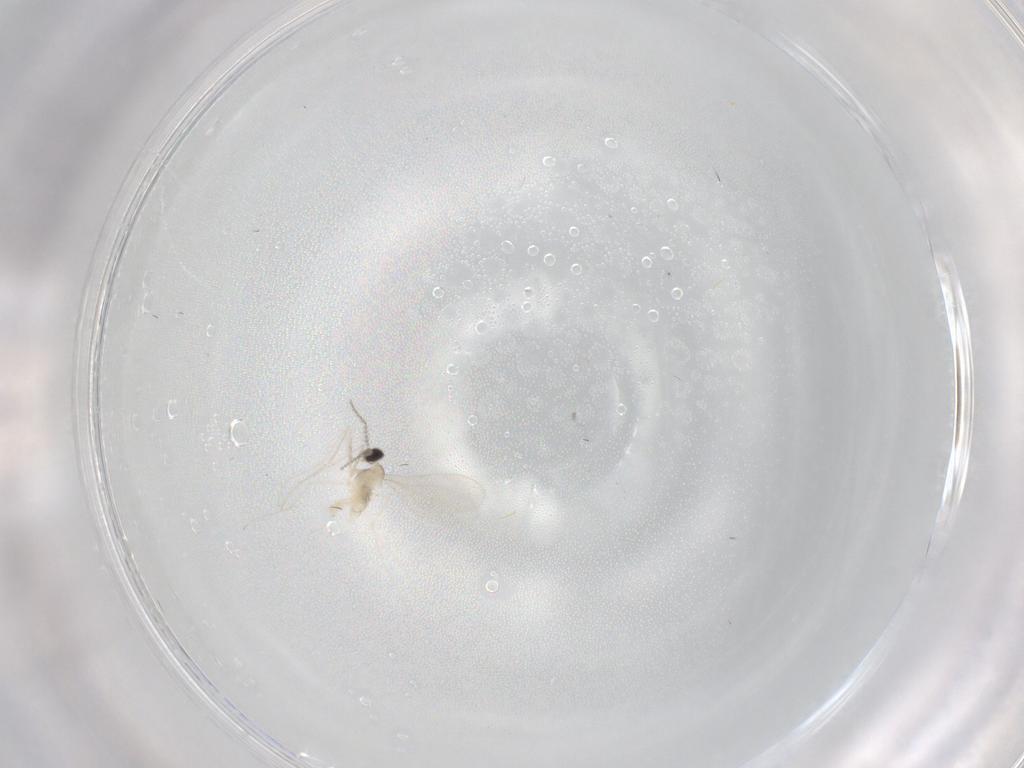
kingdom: Animalia
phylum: Arthropoda
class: Insecta
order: Diptera
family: Cecidomyiidae
